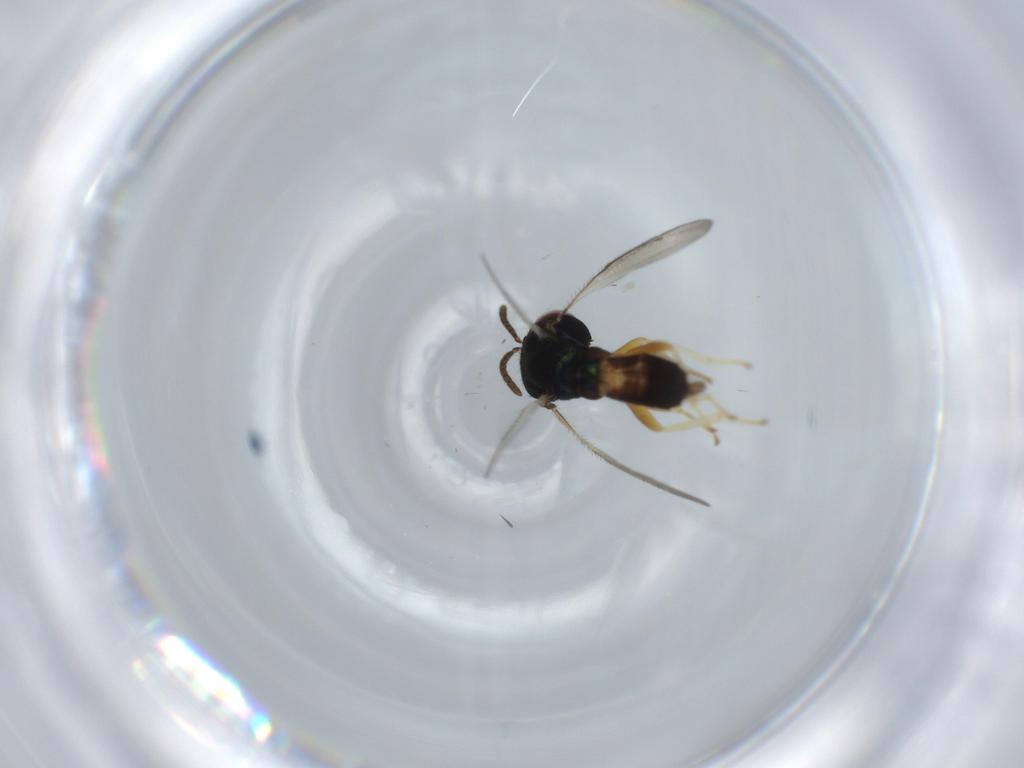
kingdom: Animalia
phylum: Arthropoda
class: Insecta
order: Hymenoptera
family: Pteromalidae
